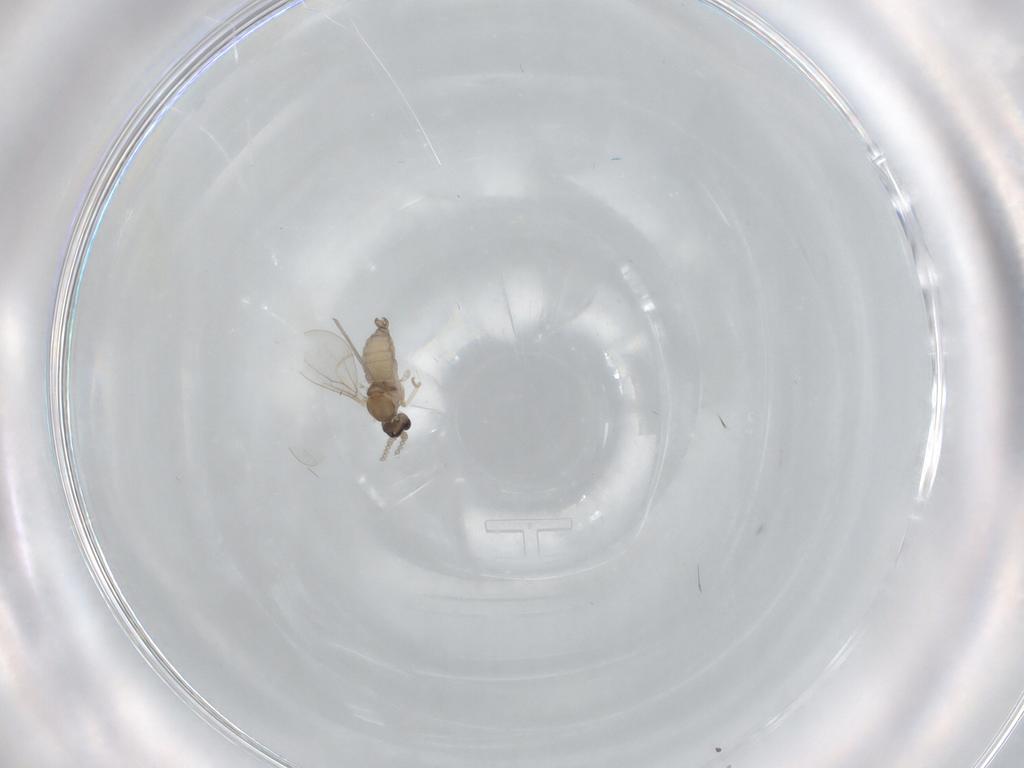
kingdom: Animalia
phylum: Arthropoda
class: Insecta
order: Diptera
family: Cecidomyiidae
